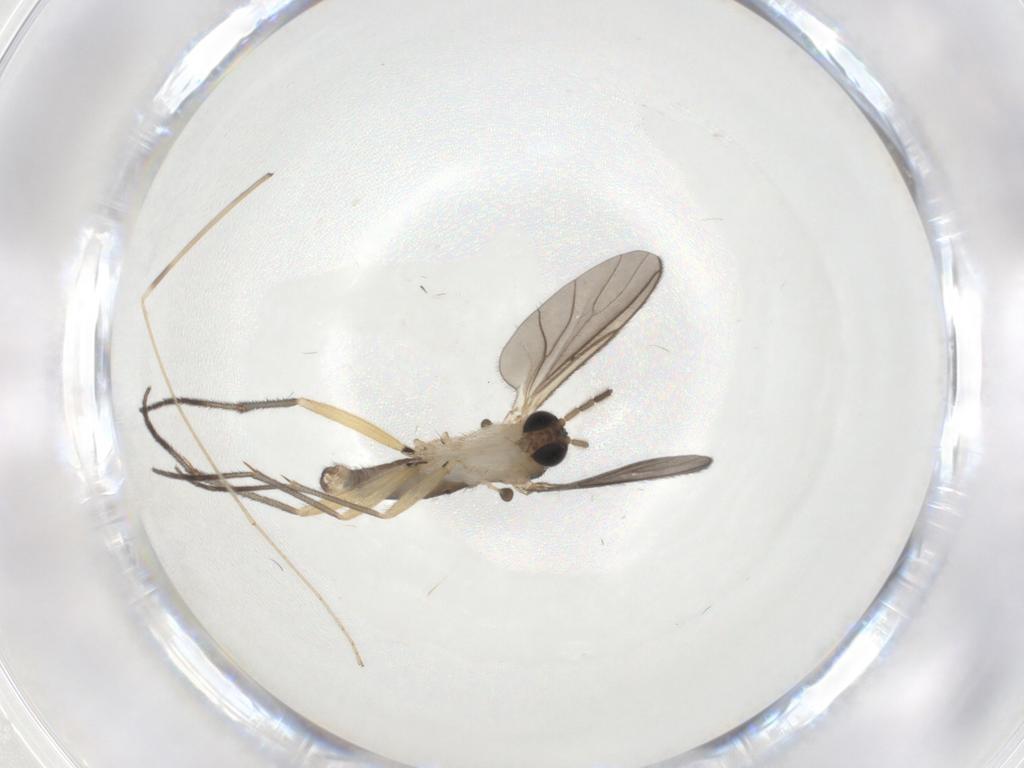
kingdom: Animalia
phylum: Arthropoda
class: Insecta
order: Diptera
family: Sciaridae
